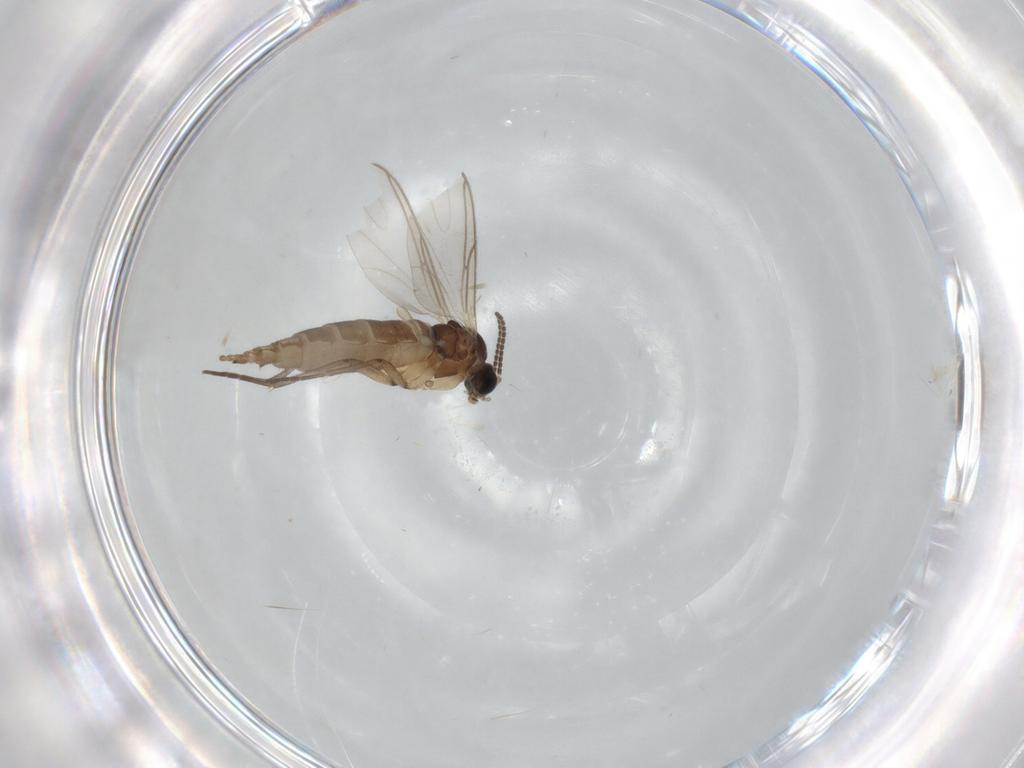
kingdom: Animalia
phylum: Arthropoda
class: Insecta
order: Diptera
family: Sciaridae
